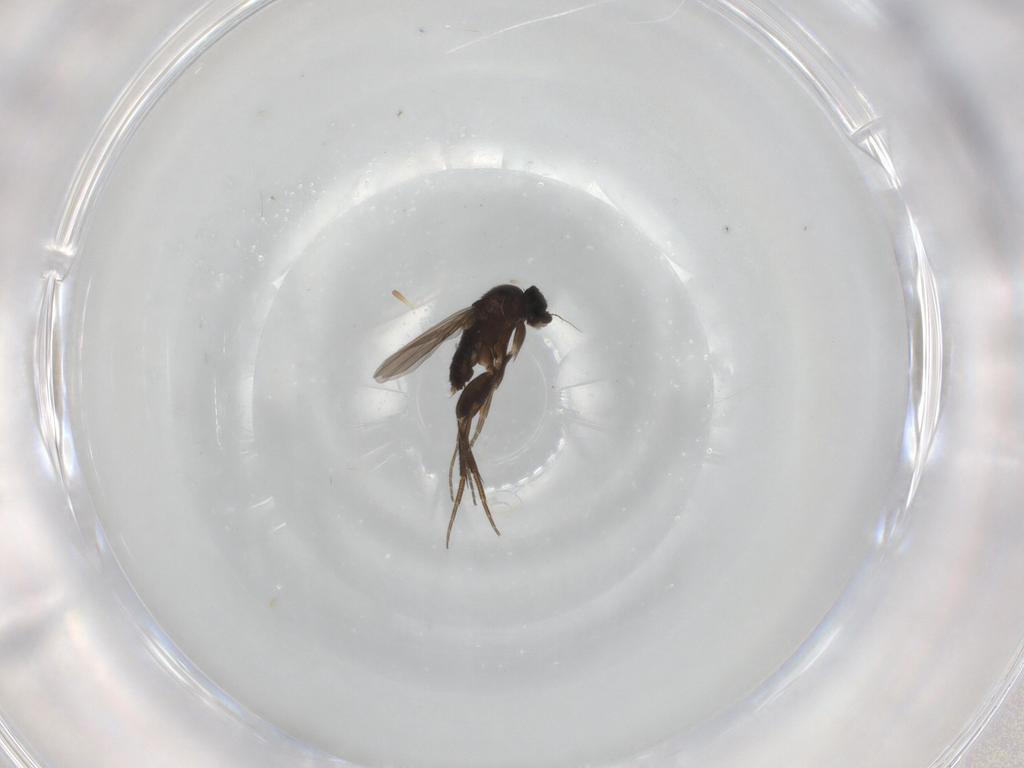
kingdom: Animalia
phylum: Arthropoda
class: Insecta
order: Diptera
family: Phoridae
